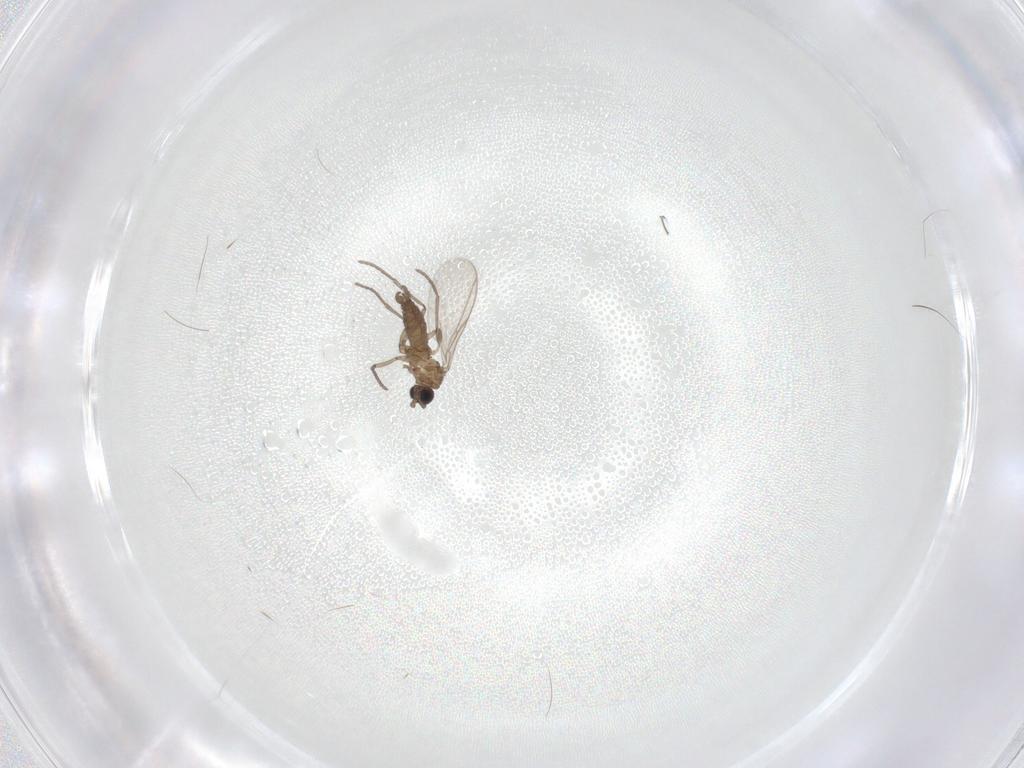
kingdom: Animalia
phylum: Arthropoda
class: Insecta
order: Diptera
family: Sciaridae
